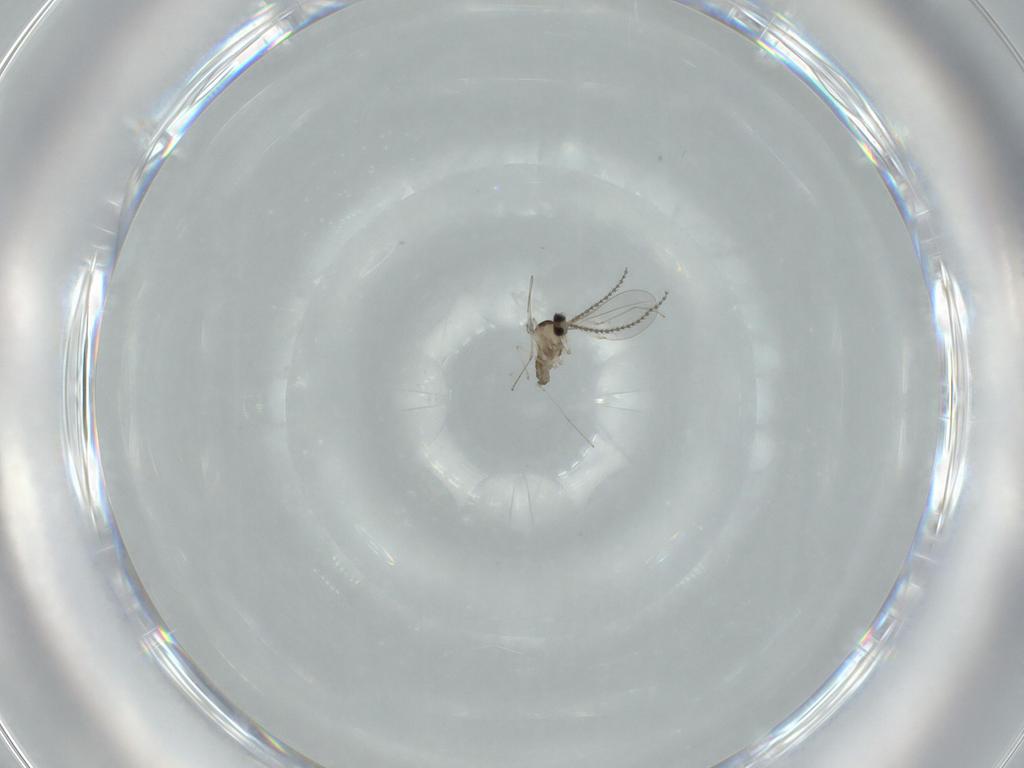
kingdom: Animalia
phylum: Arthropoda
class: Insecta
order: Diptera
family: Cecidomyiidae
